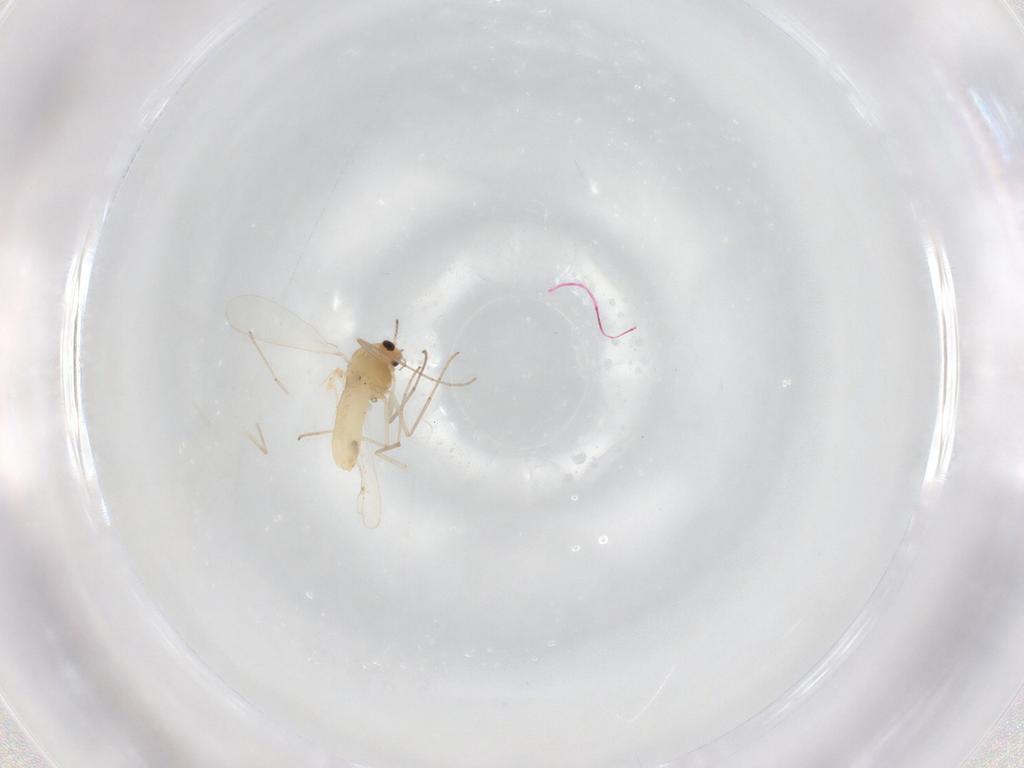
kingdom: Animalia
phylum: Arthropoda
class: Insecta
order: Diptera
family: Chironomidae
